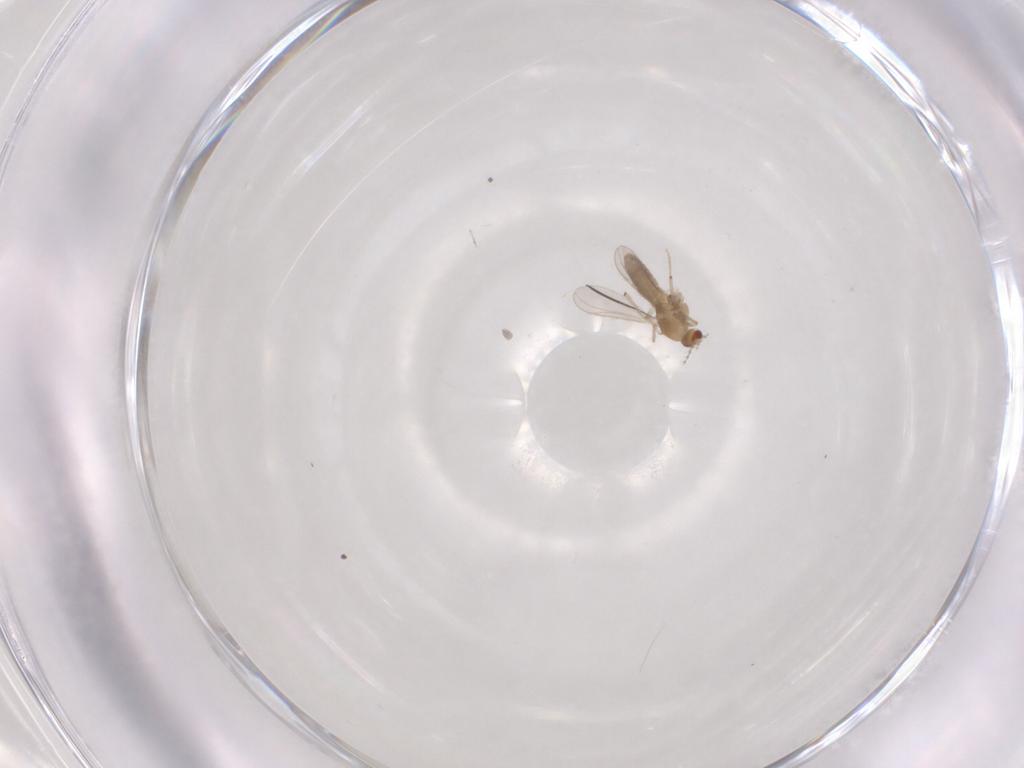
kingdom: Animalia
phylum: Arthropoda
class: Insecta
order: Diptera
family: Chironomidae
